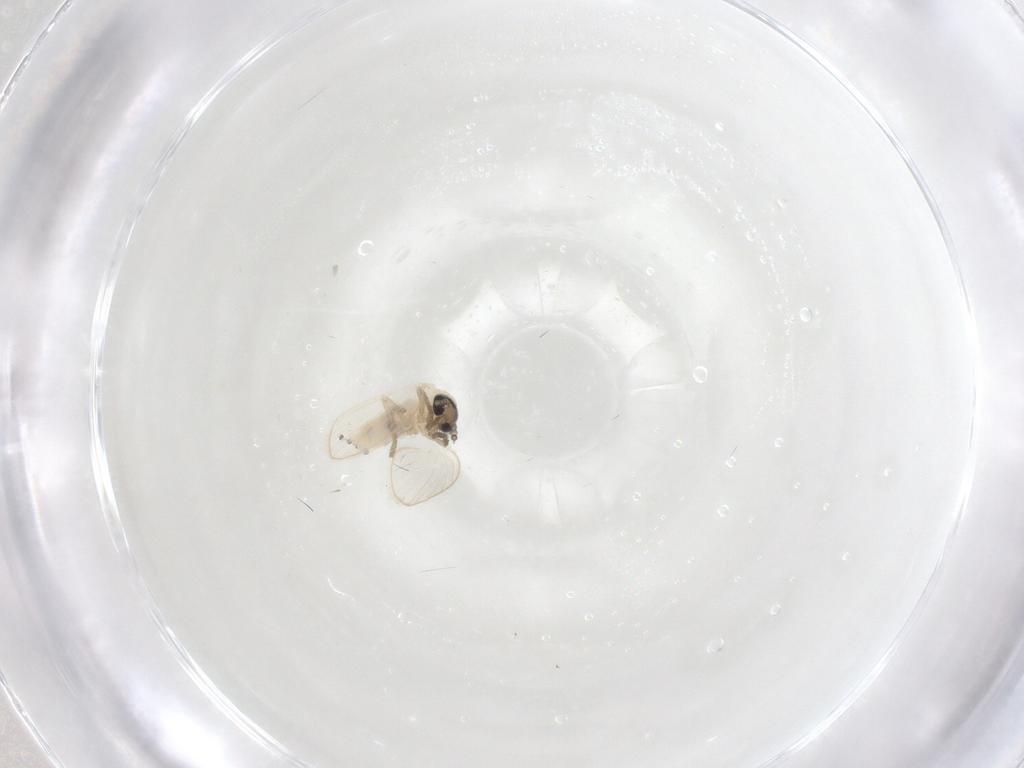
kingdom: Animalia
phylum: Arthropoda
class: Insecta
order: Diptera
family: Psychodidae
